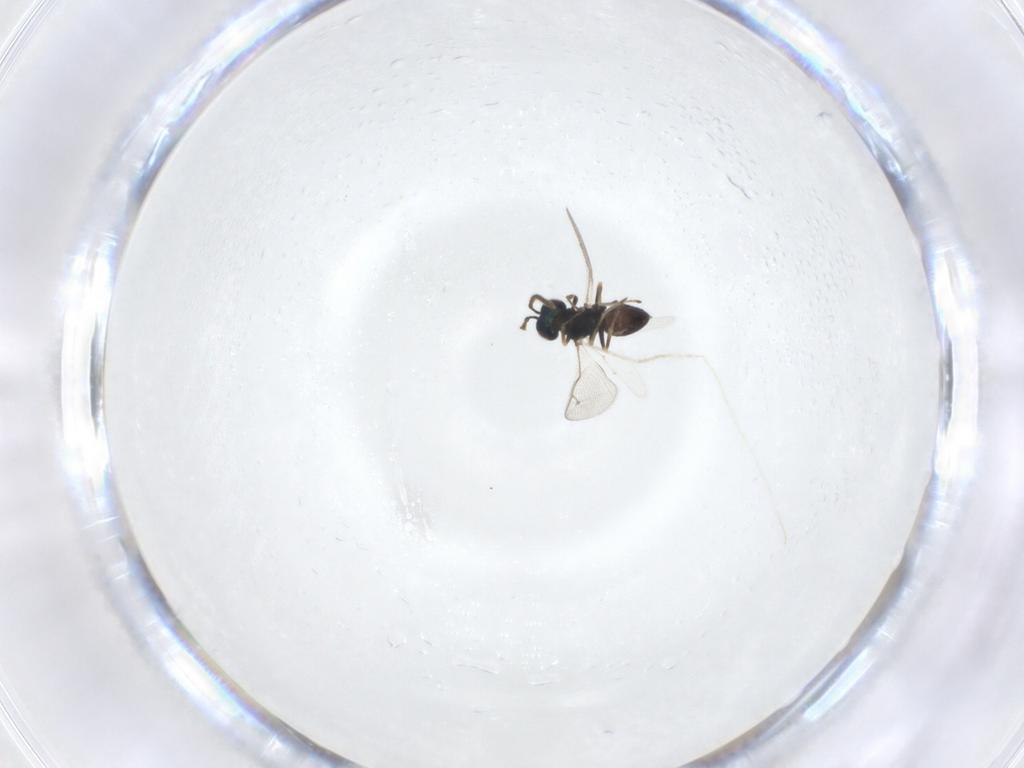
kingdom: Animalia
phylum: Arthropoda
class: Insecta
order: Hymenoptera
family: Pteromalidae
